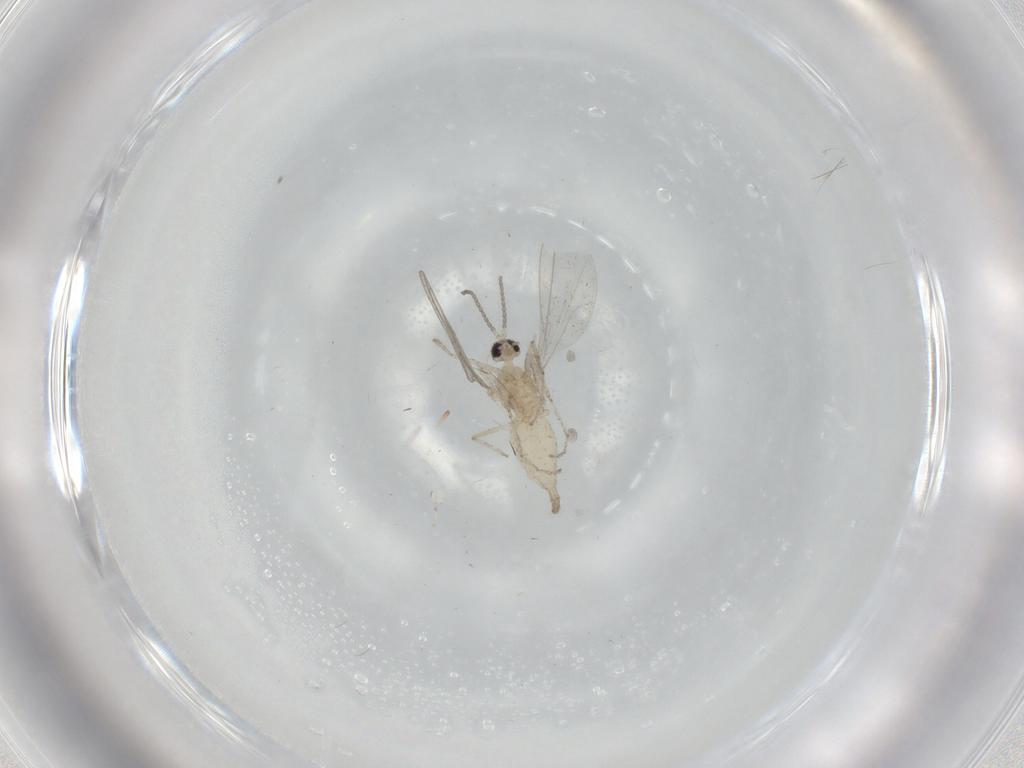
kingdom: Animalia
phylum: Arthropoda
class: Insecta
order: Diptera
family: Cecidomyiidae
